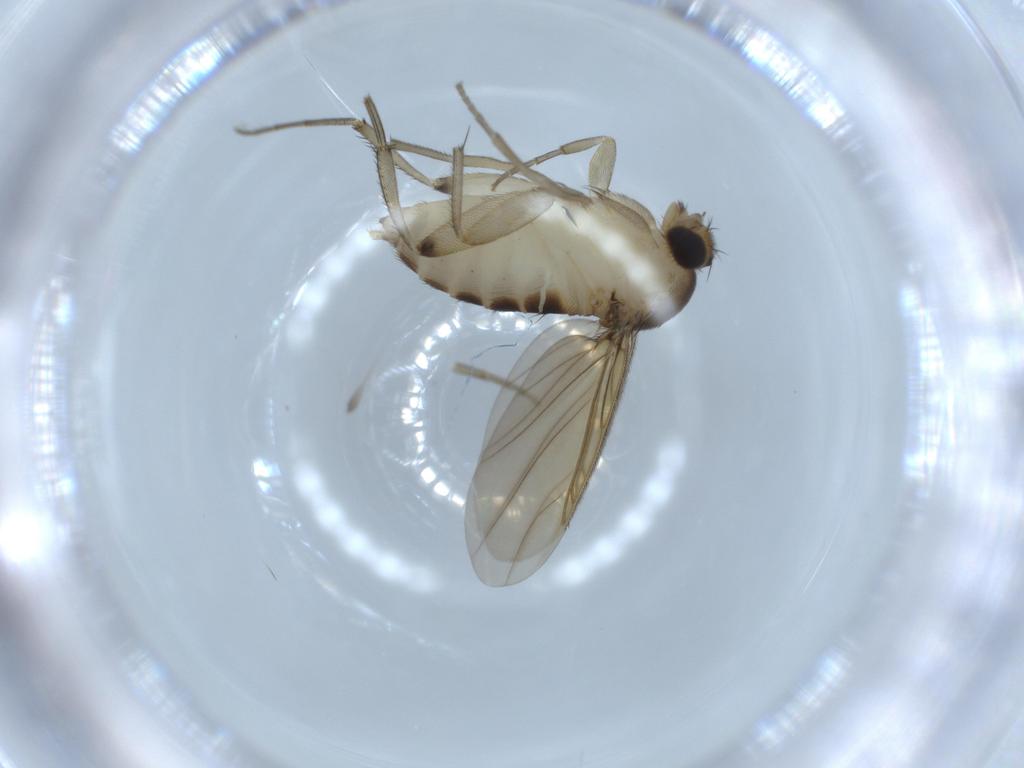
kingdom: Animalia
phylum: Arthropoda
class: Insecta
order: Diptera
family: Phoridae
